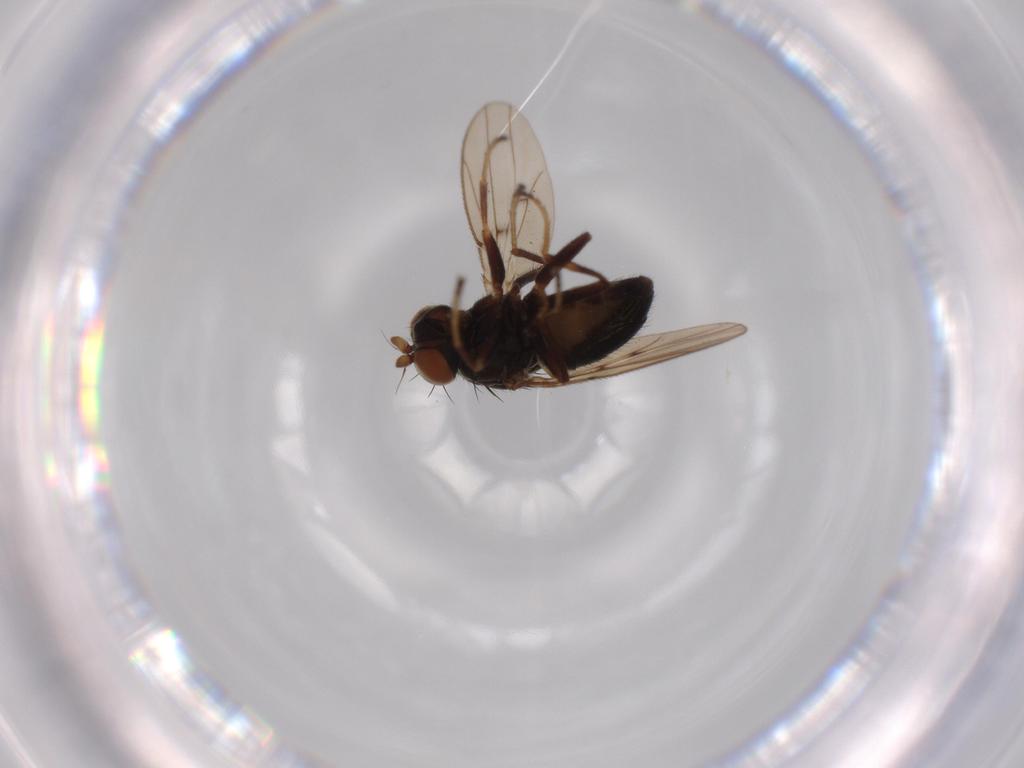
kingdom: Animalia
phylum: Arthropoda
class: Insecta
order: Diptera
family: Ephydridae
